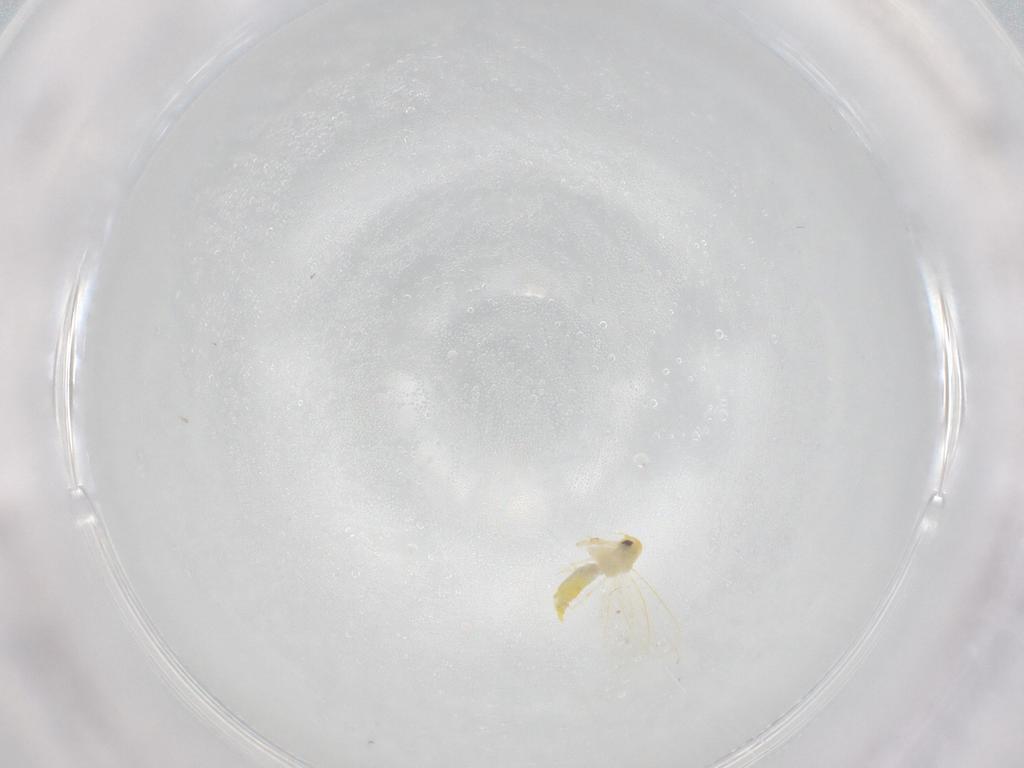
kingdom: Animalia
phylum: Arthropoda
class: Insecta
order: Hemiptera
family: Aleyrodidae
